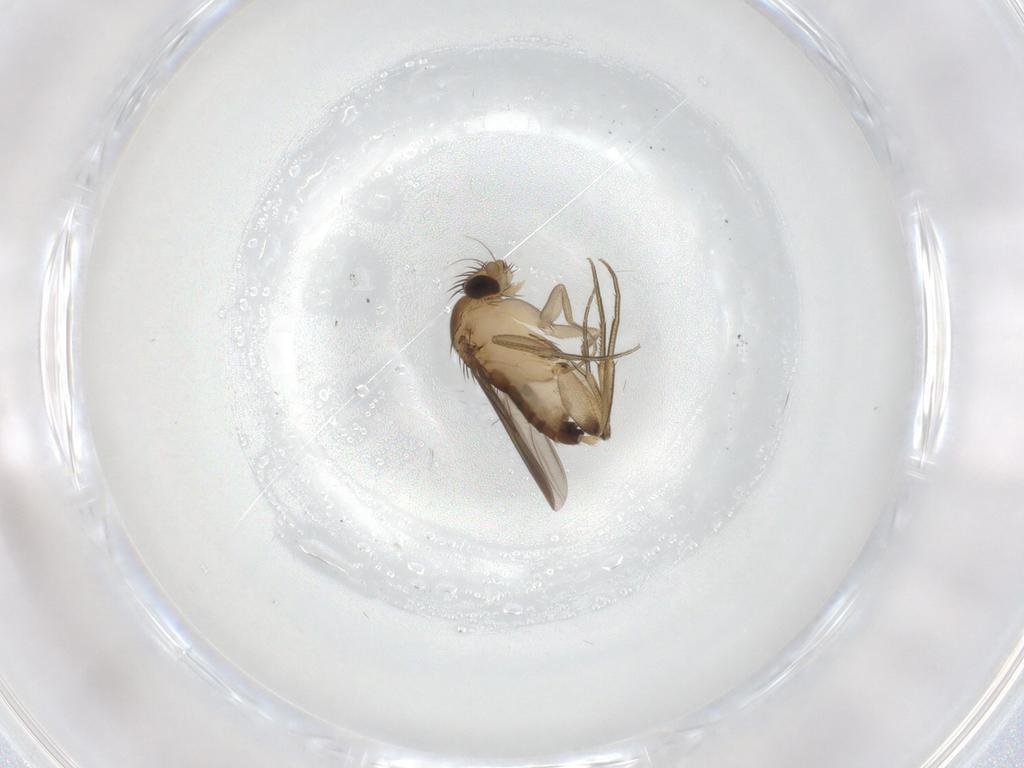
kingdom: Animalia
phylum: Arthropoda
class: Insecta
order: Diptera
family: Phoridae
